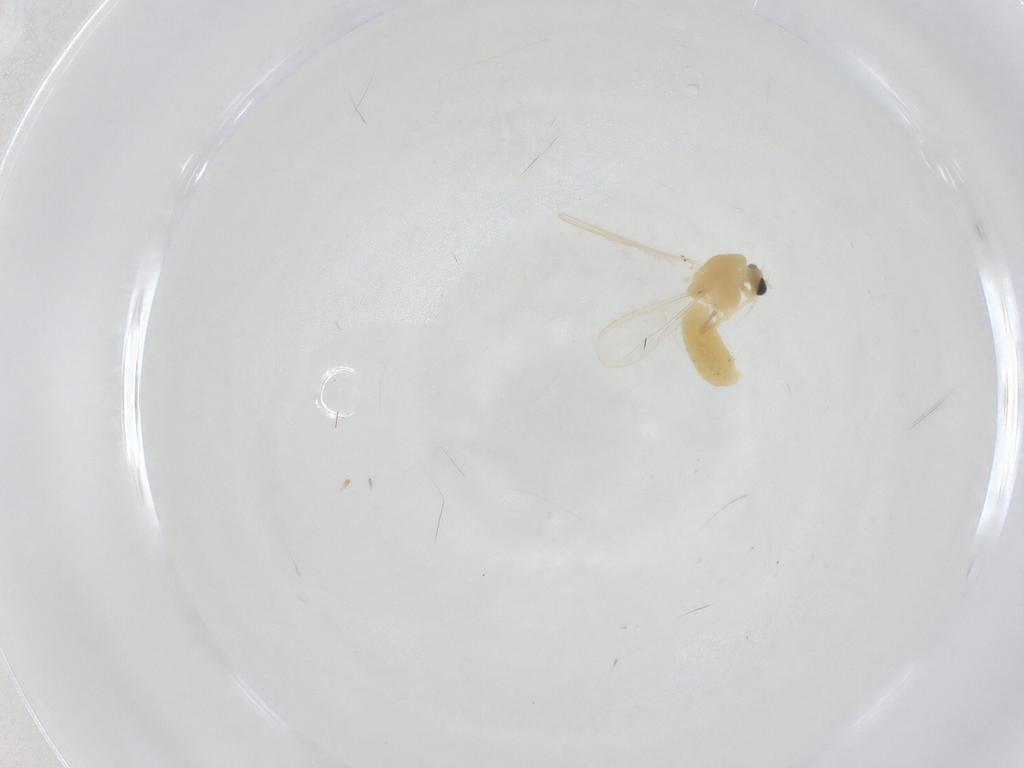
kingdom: Animalia
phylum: Arthropoda
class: Insecta
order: Diptera
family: Chironomidae
